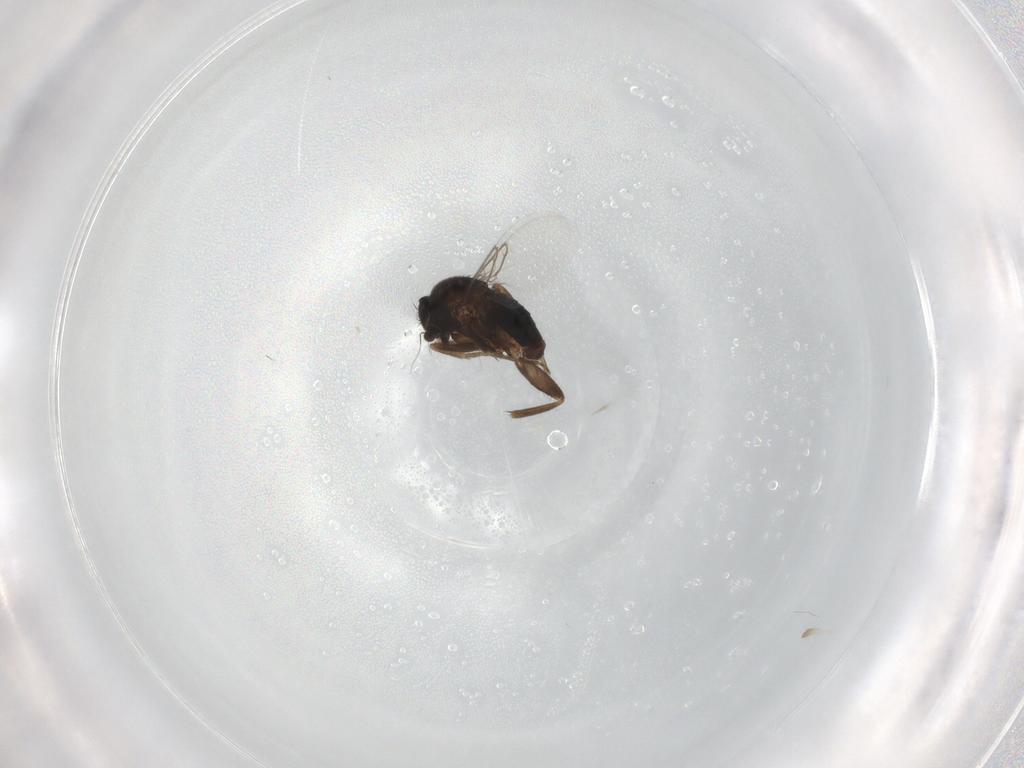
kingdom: Animalia
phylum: Arthropoda
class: Insecta
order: Diptera
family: Phoridae
